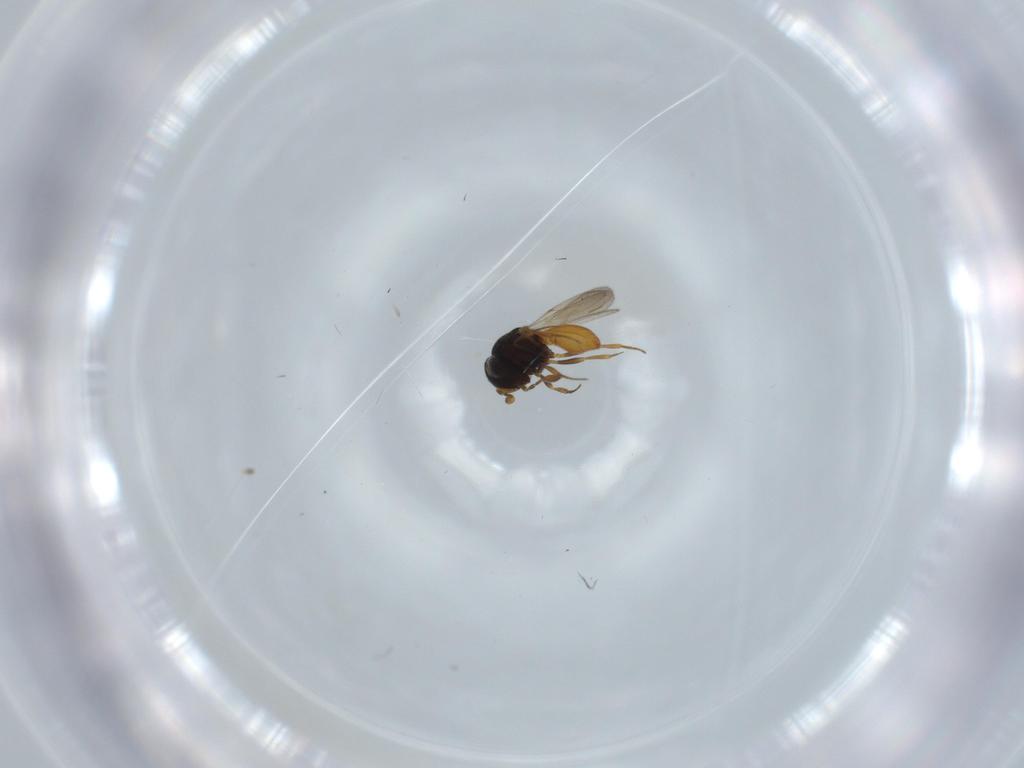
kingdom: Animalia
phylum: Arthropoda
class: Insecta
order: Hymenoptera
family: Scelionidae
